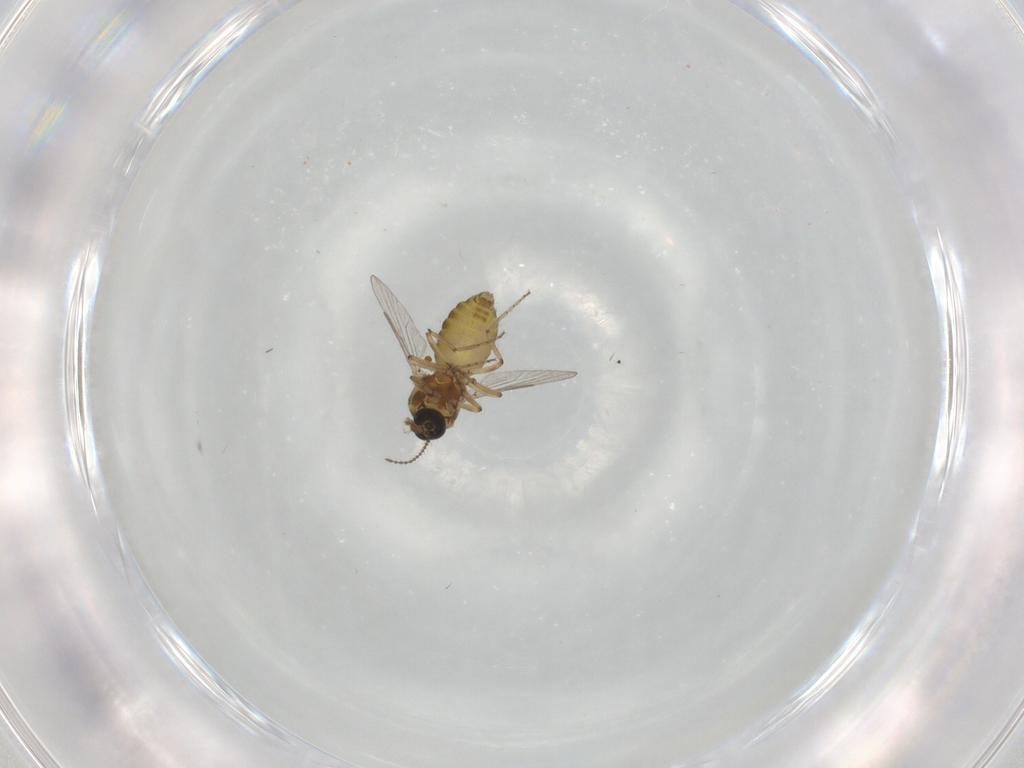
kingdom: Animalia
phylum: Arthropoda
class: Insecta
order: Diptera
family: Ceratopogonidae
